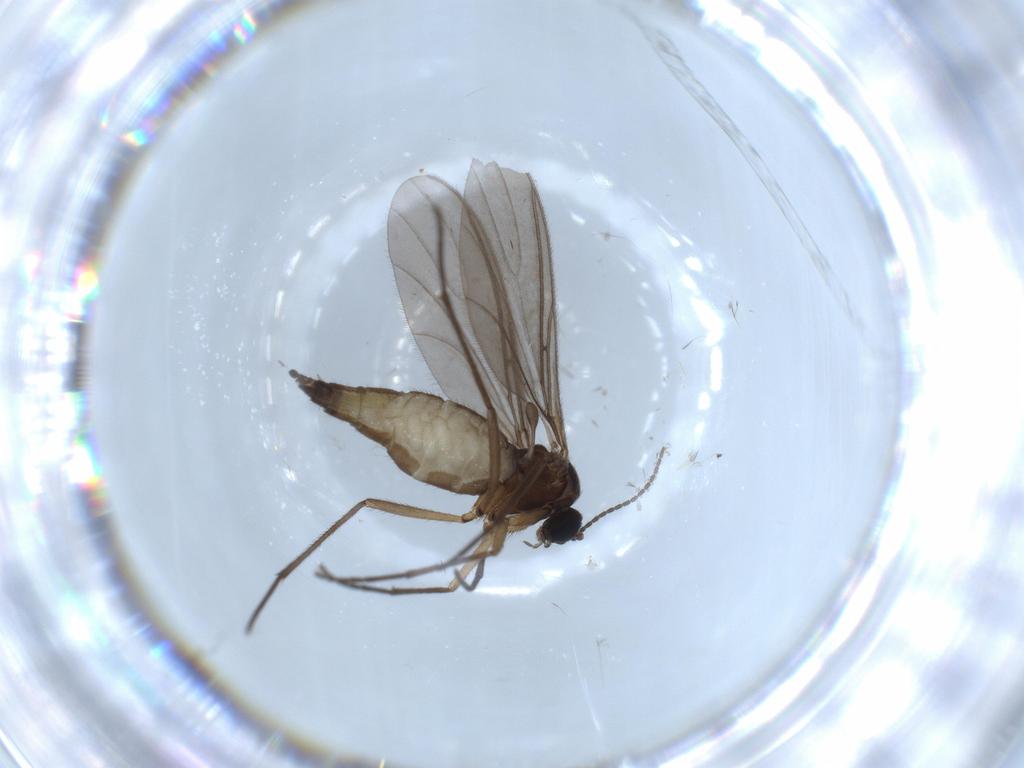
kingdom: Animalia
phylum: Arthropoda
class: Insecta
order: Diptera
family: Sciaridae
